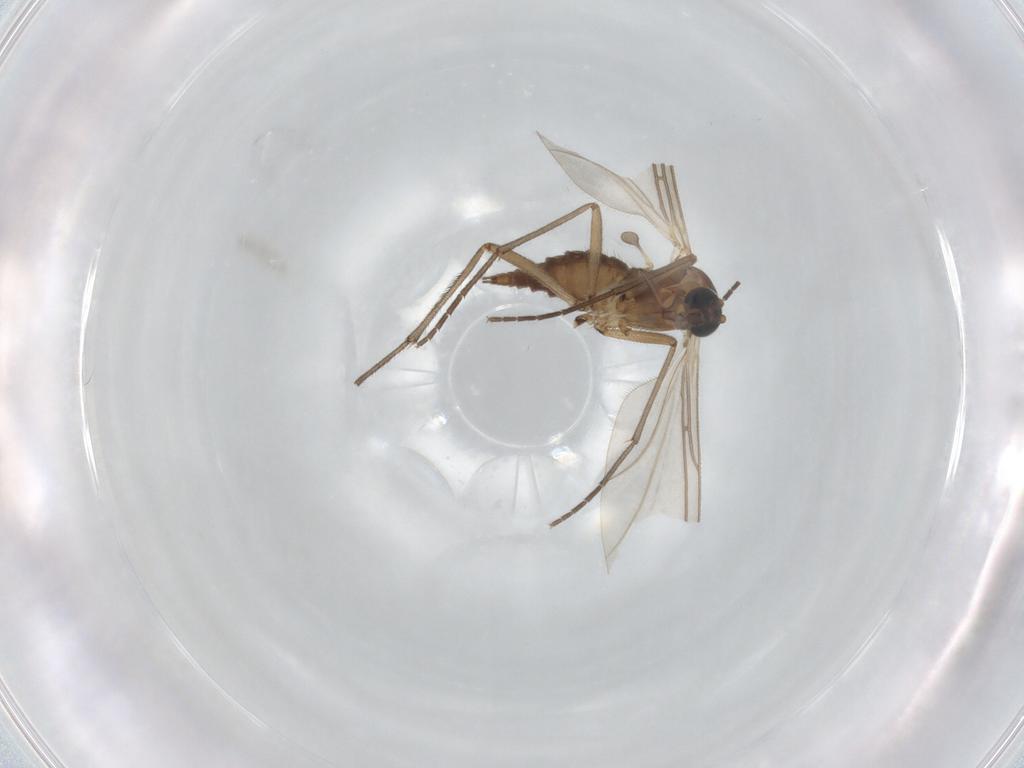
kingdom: Animalia
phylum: Arthropoda
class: Insecta
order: Diptera
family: Sciaridae
